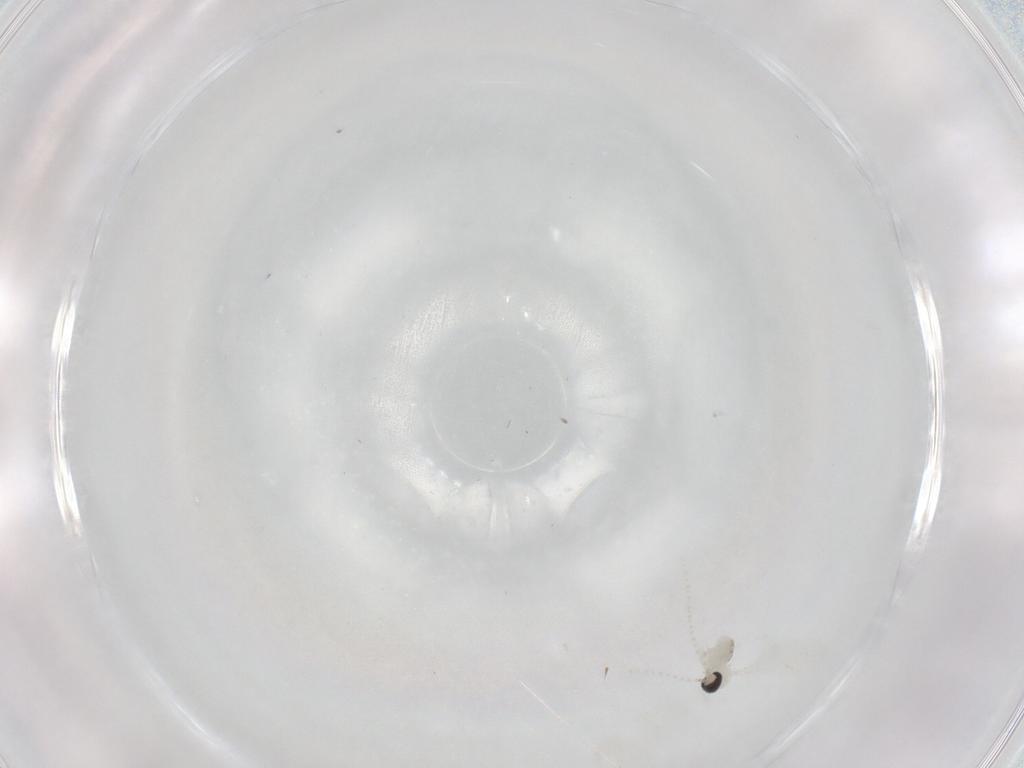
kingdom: Animalia
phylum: Arthropoda
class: Insecta
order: Diptera
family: Cecidomyiidae
